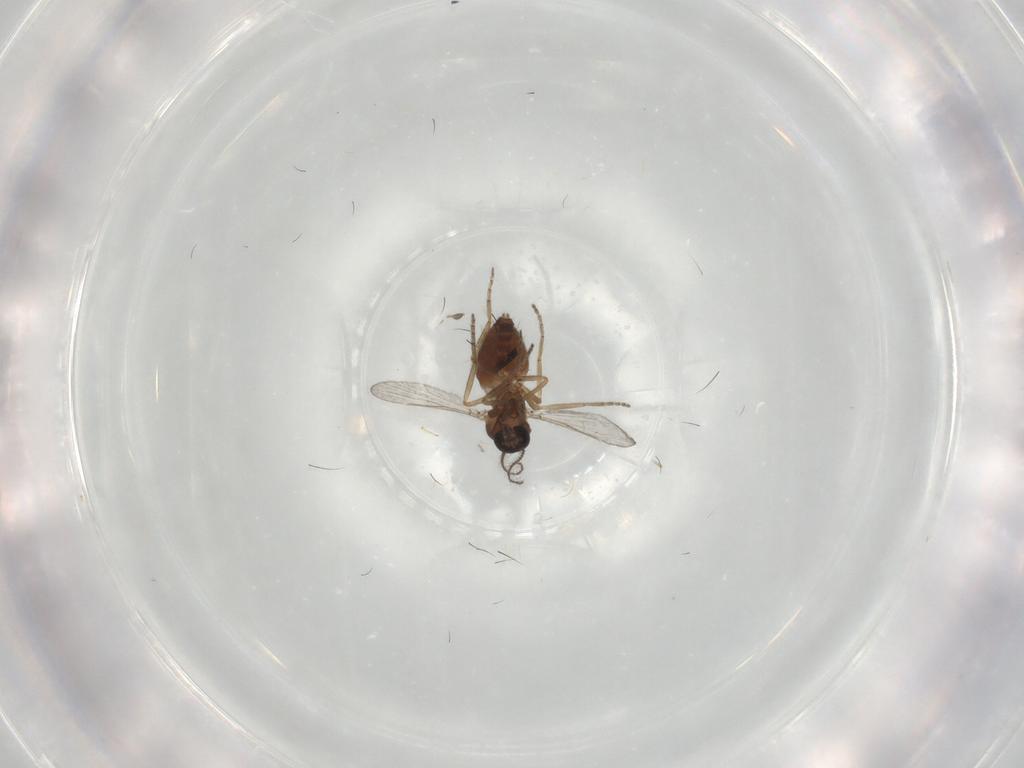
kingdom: Animalia
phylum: Arthropoda
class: Insecta
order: Diptera
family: Ceratopogonidae
